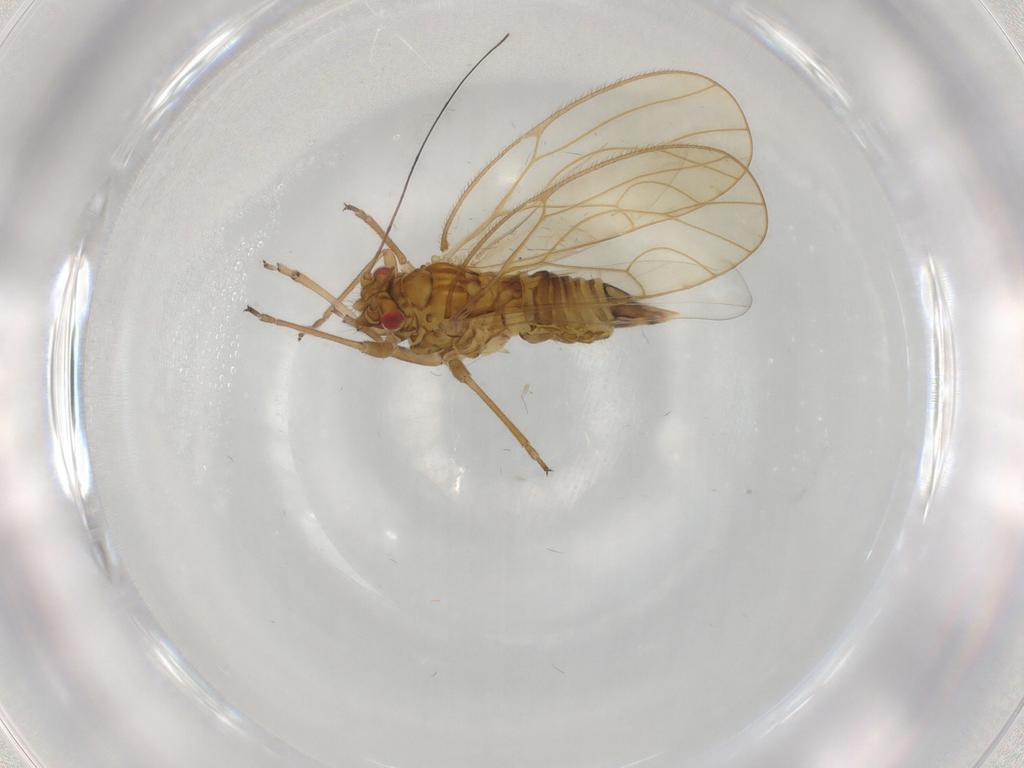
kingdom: Animalia
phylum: Arthropoda
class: Insecta
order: Hemiptera
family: Psyllidae
